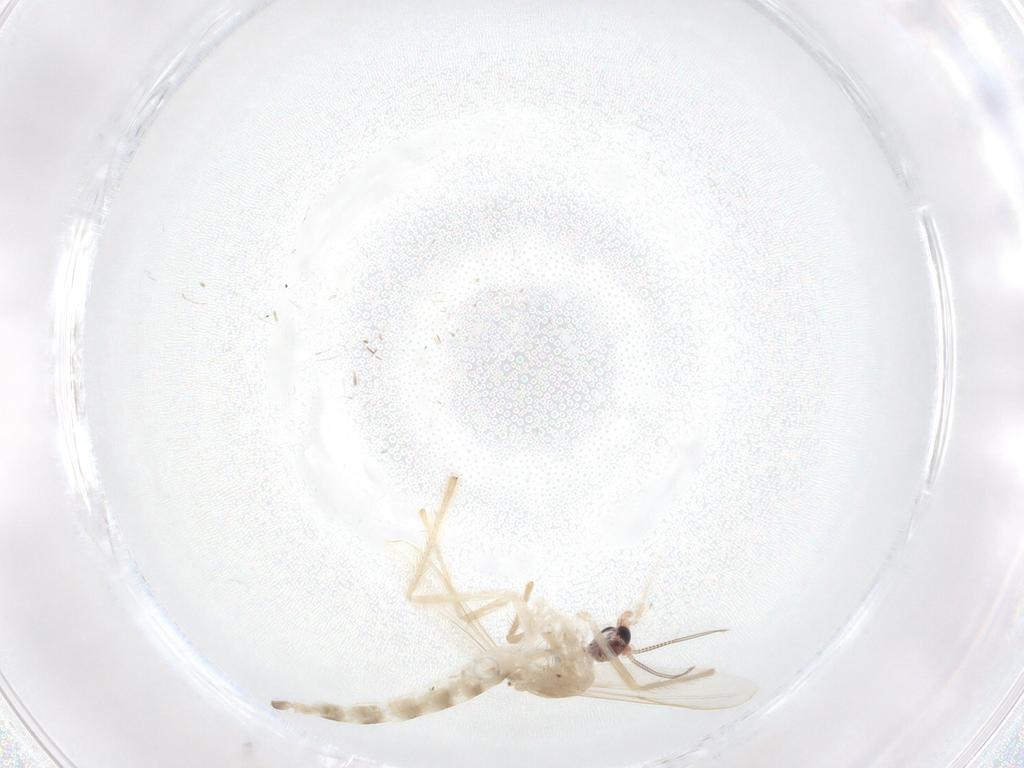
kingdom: Animalia
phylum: Arthropoda
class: Insecta
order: Diptera
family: Chironomidae
